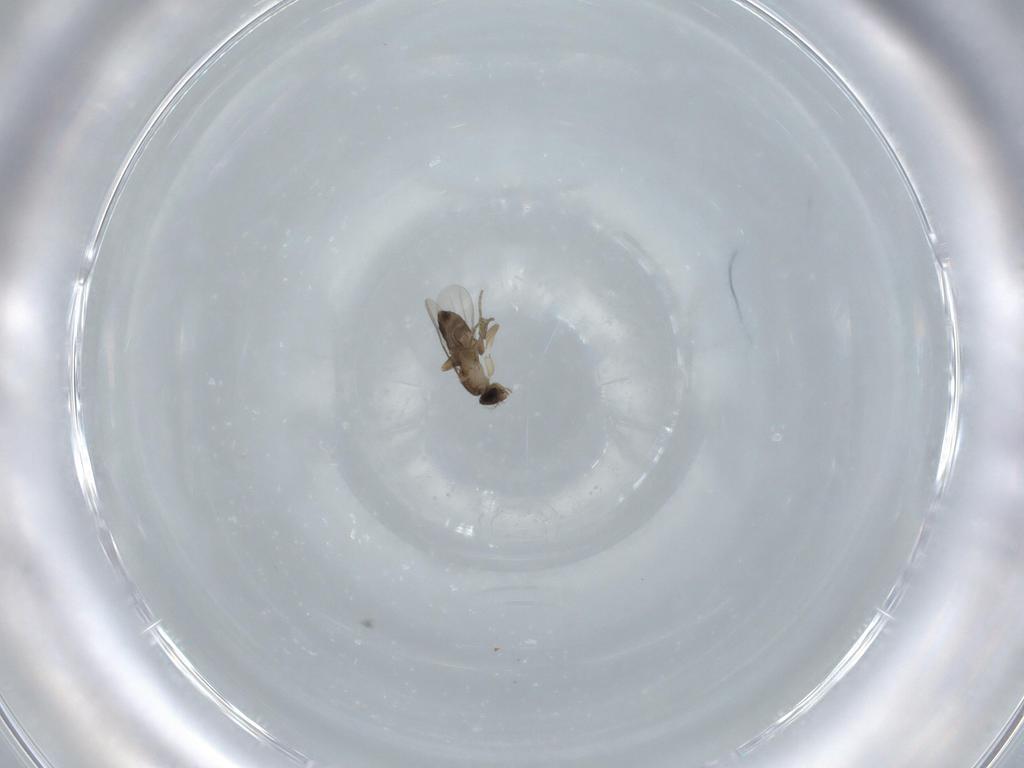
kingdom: Animalia
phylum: Arthropoda
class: Insecta
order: Diptera
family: Phoridae
